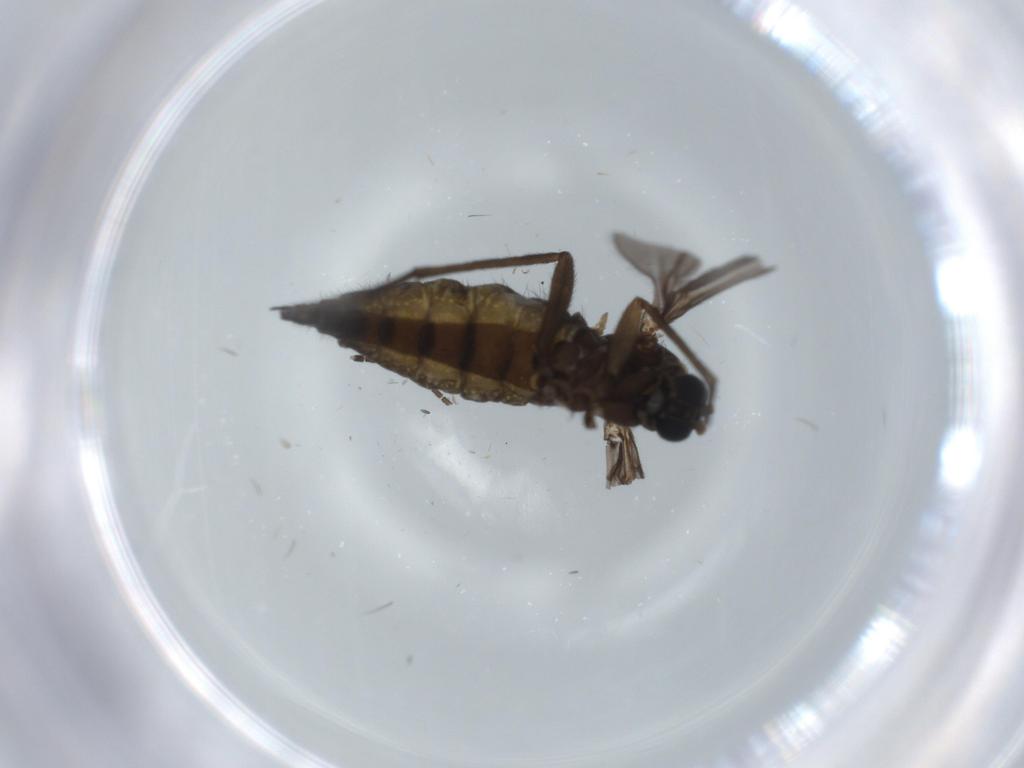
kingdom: Animalia
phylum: Arthropoda
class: Insecta
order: Diptera
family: Sciaridae
